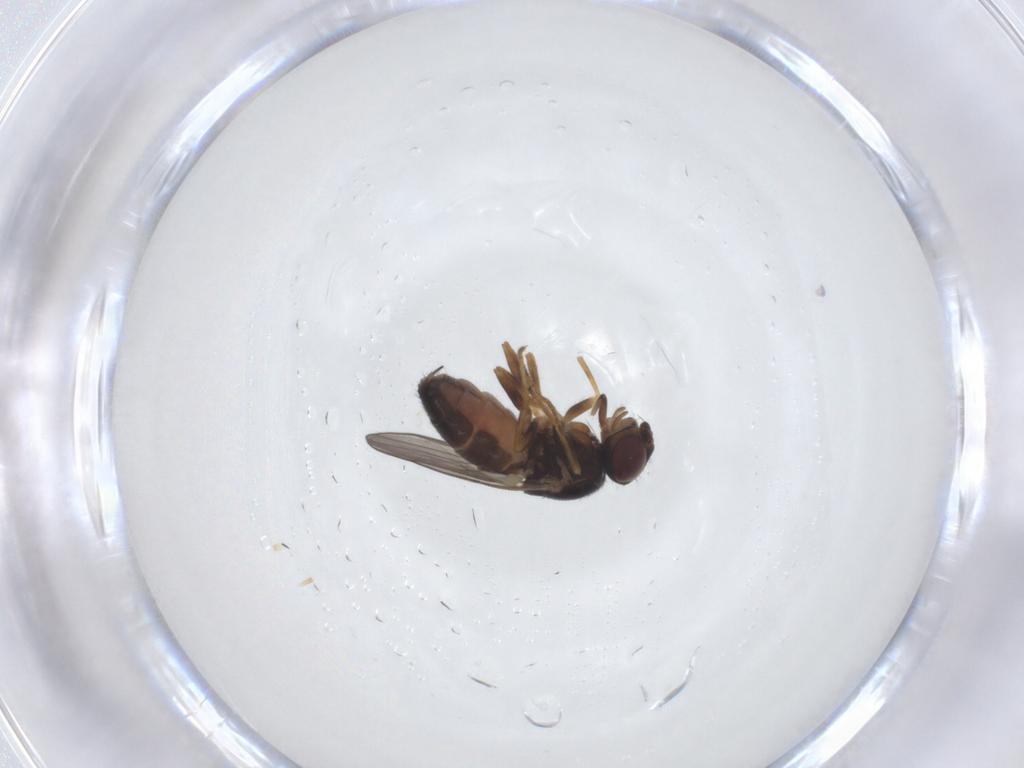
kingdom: Animalia
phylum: Arthropoda
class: Insecta
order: Diptera
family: Chloropidae
